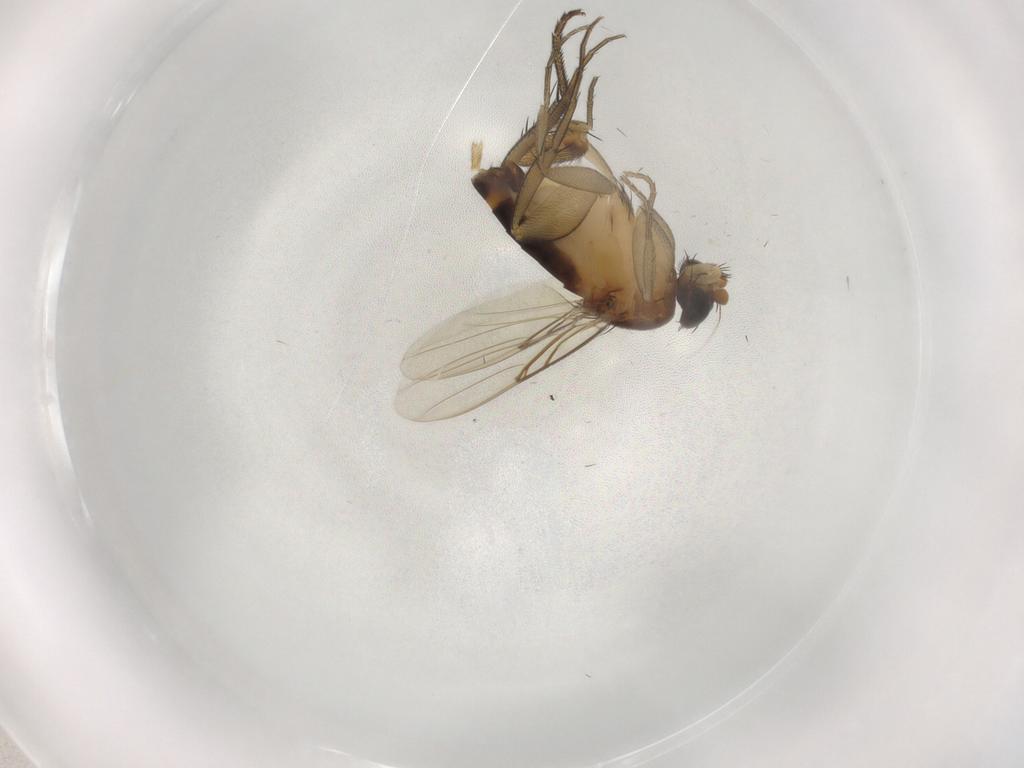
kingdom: Animalia
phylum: Arthropoda
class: Insecta
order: Diptera
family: Phoridae
